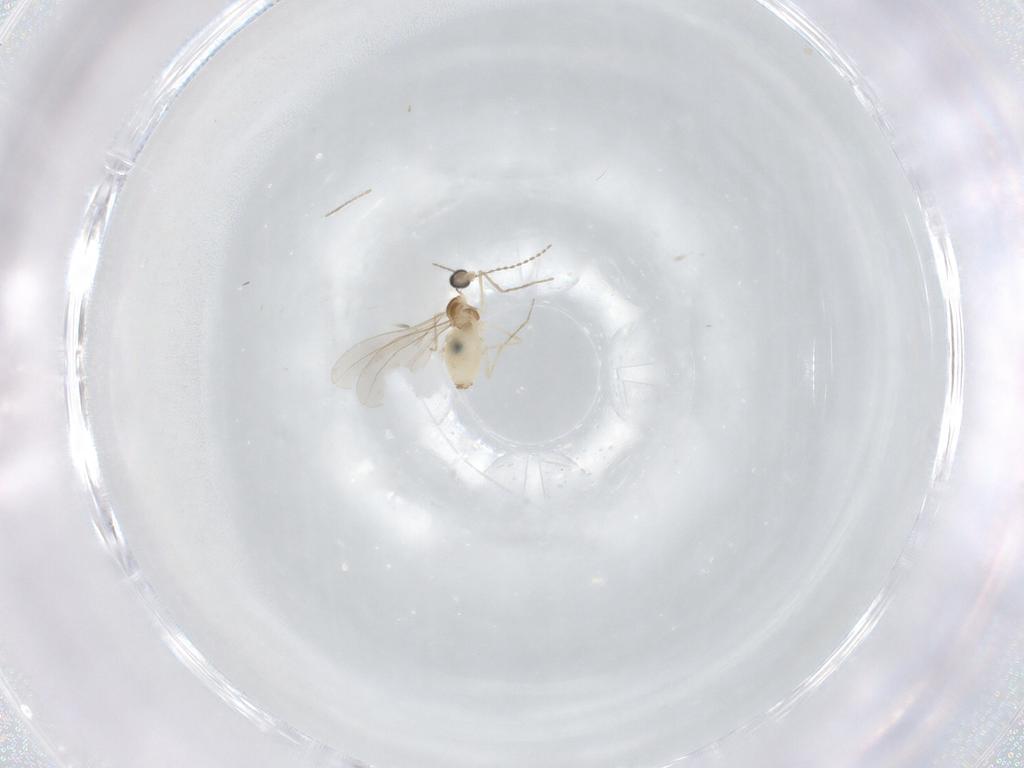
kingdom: Animalia
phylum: Arthropoda
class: Insecta
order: Diptera
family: Cecidomyiidae
